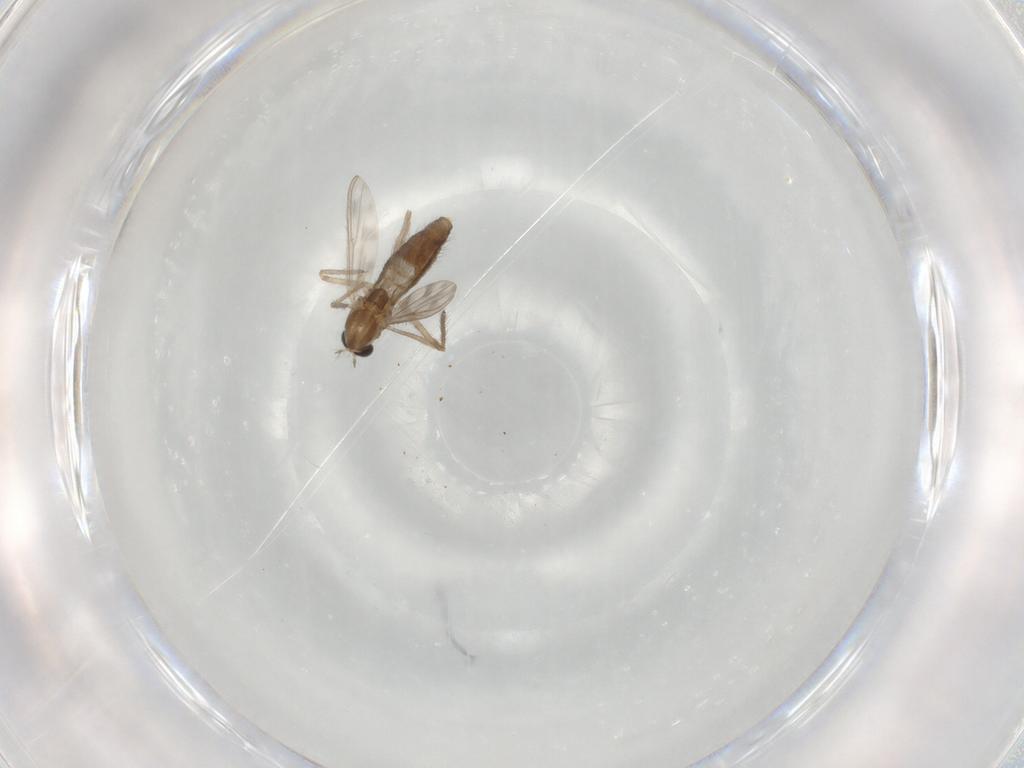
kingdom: Animalia
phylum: Arthropoda
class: Insecta
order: Diptera
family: Chironomidae
